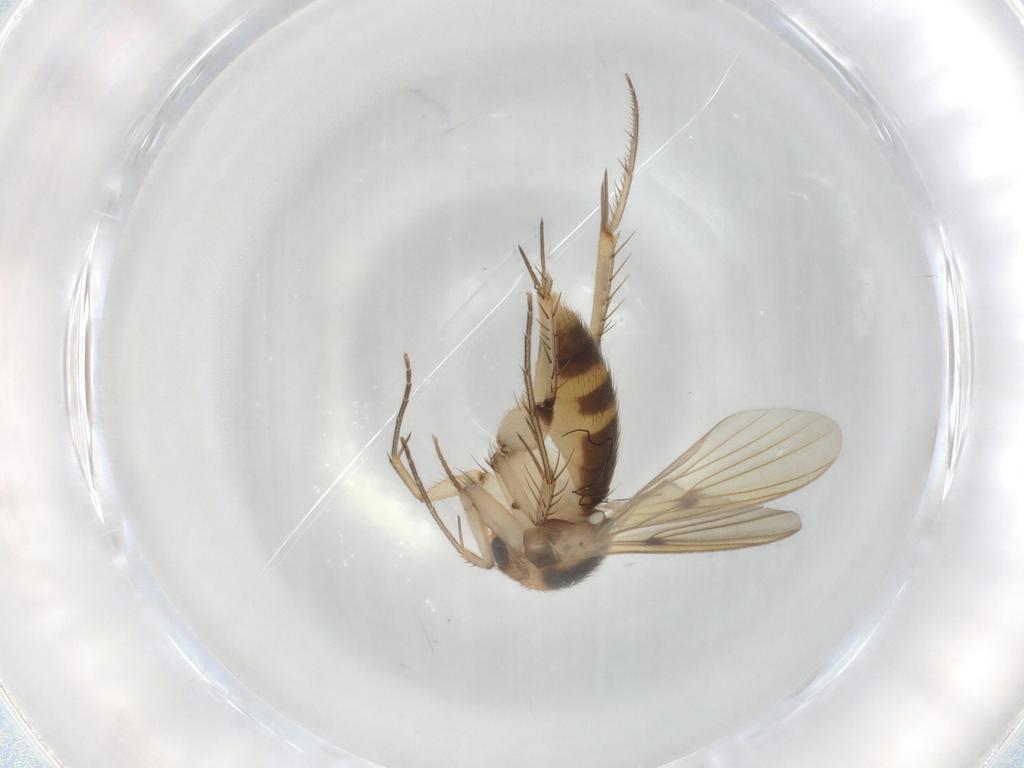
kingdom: Animalia
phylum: Arthropoda
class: Insecta
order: Diptera
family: Mycetophilidae
